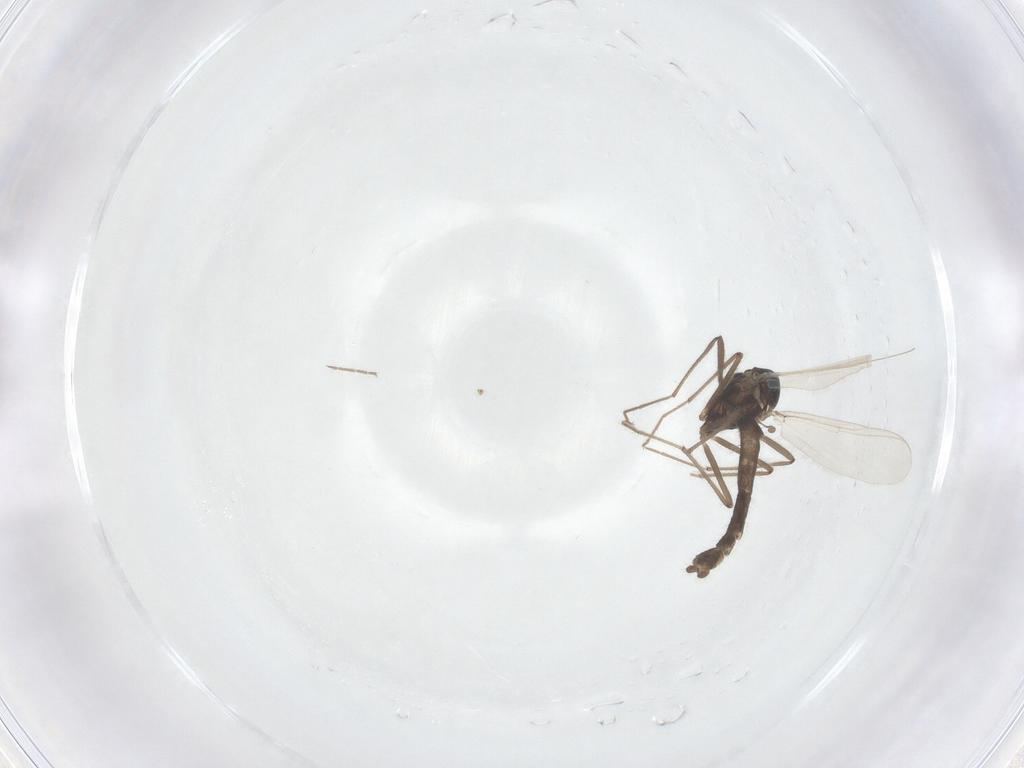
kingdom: Animalia
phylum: Arthropoda
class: Insecta
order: Diptera
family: Chironomidae
